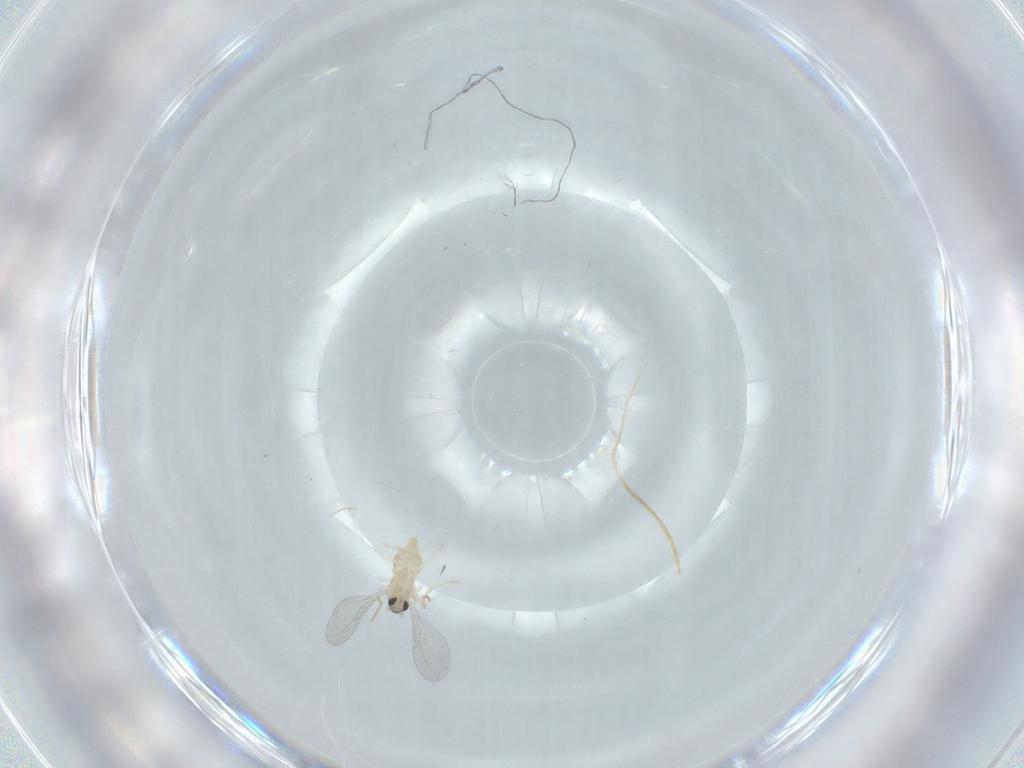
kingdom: Animalia
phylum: Arthropoda
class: Insecta
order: Diptera
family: Cecidomyiidae
